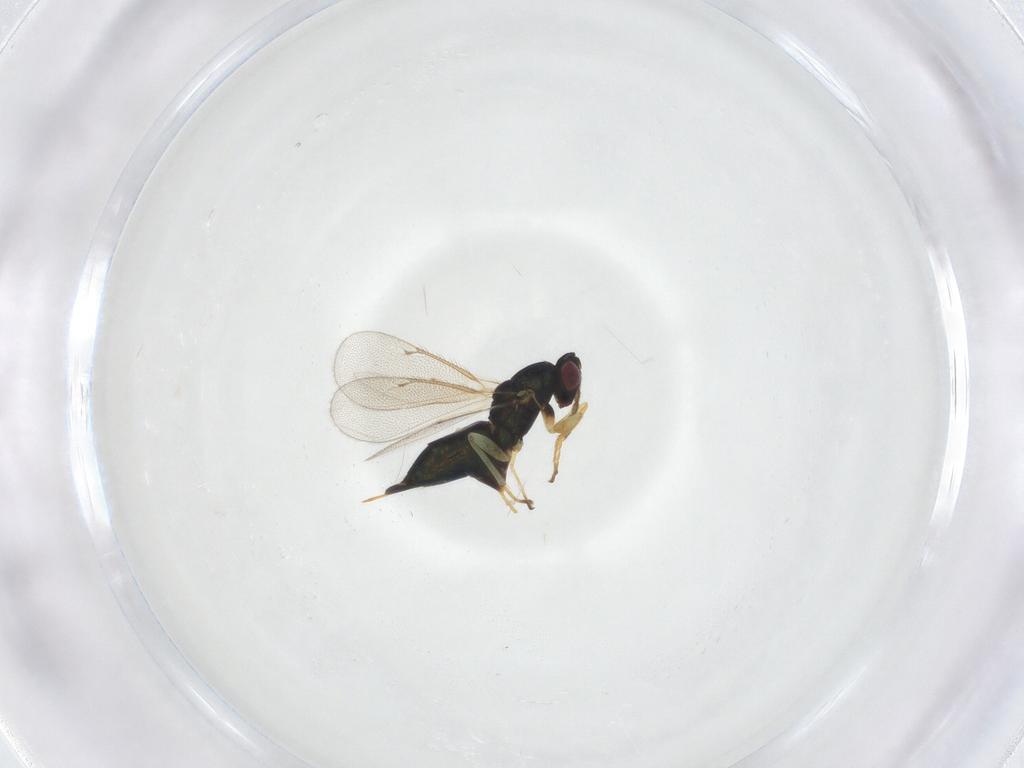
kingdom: Animalia
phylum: Arthropoda
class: Insecta
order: Hymenoptera
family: Eulophidae
